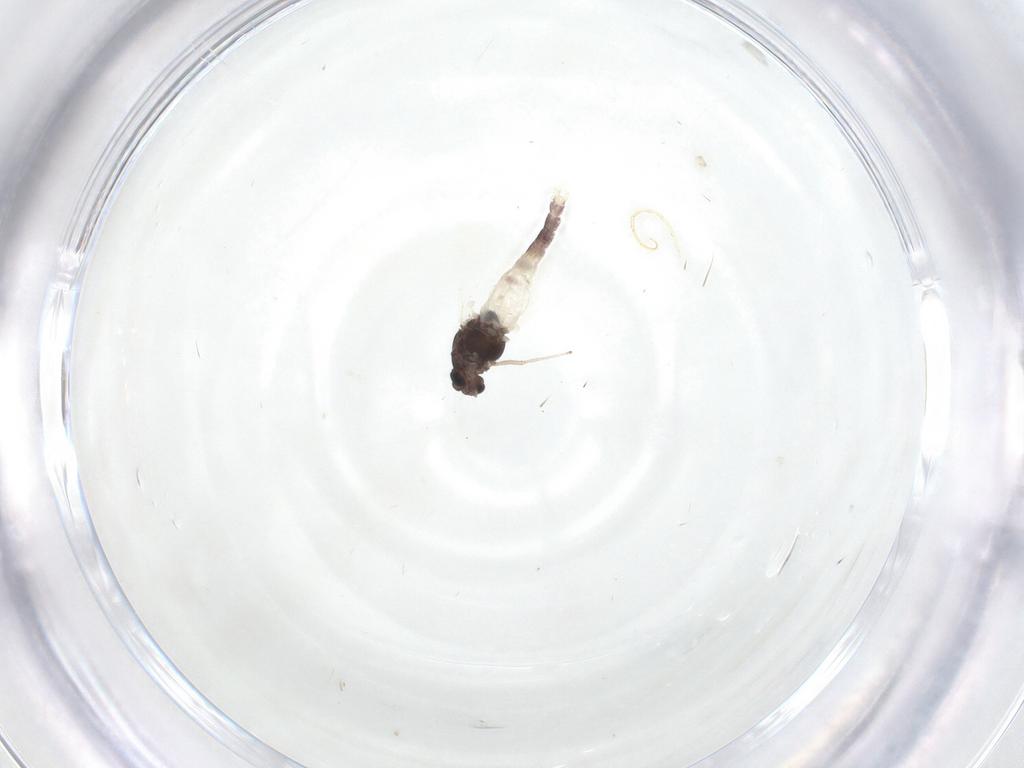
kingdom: Animalia
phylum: Arthropoda
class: Insecta
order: Diptera
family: Chironomidae
